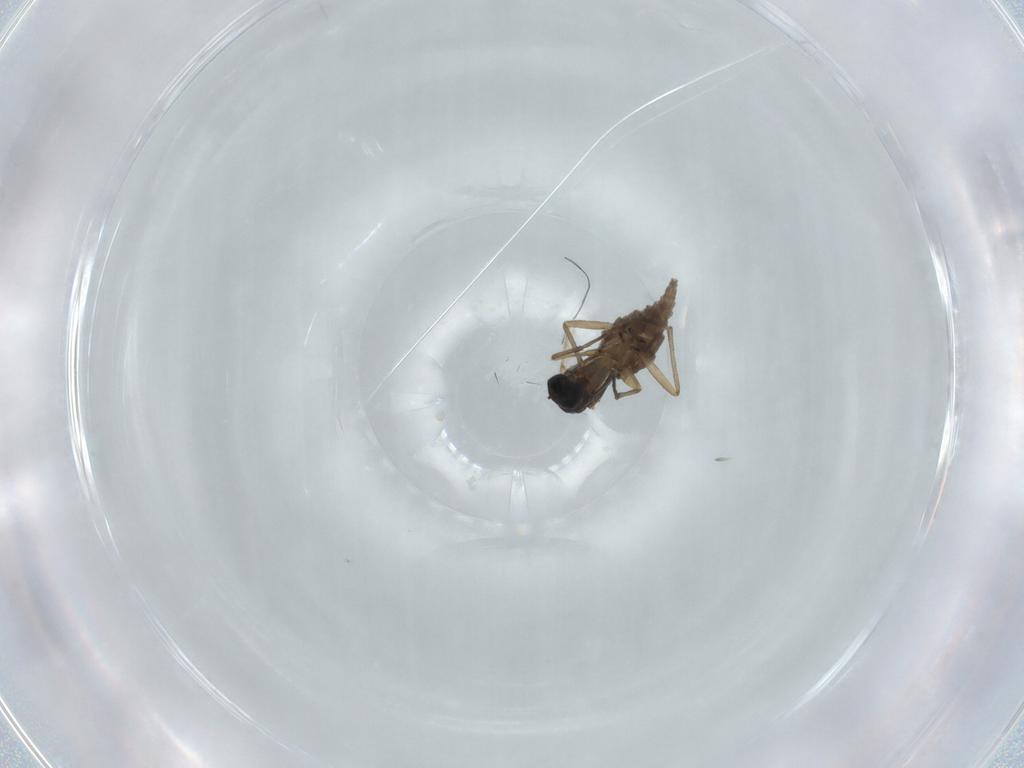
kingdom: Animalia
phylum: Arthropoda
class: Insecta
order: Diptera
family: Sciaridae
